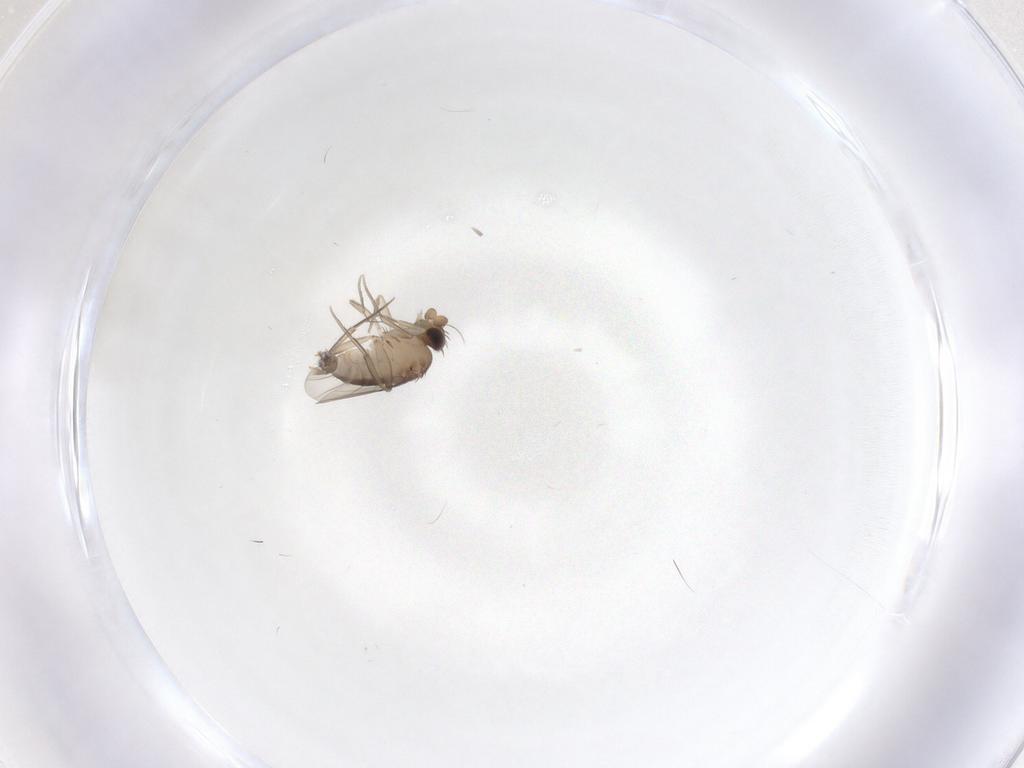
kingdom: Animalia
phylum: Arthropoda
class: Insecta
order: Diptera
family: Phoridae
